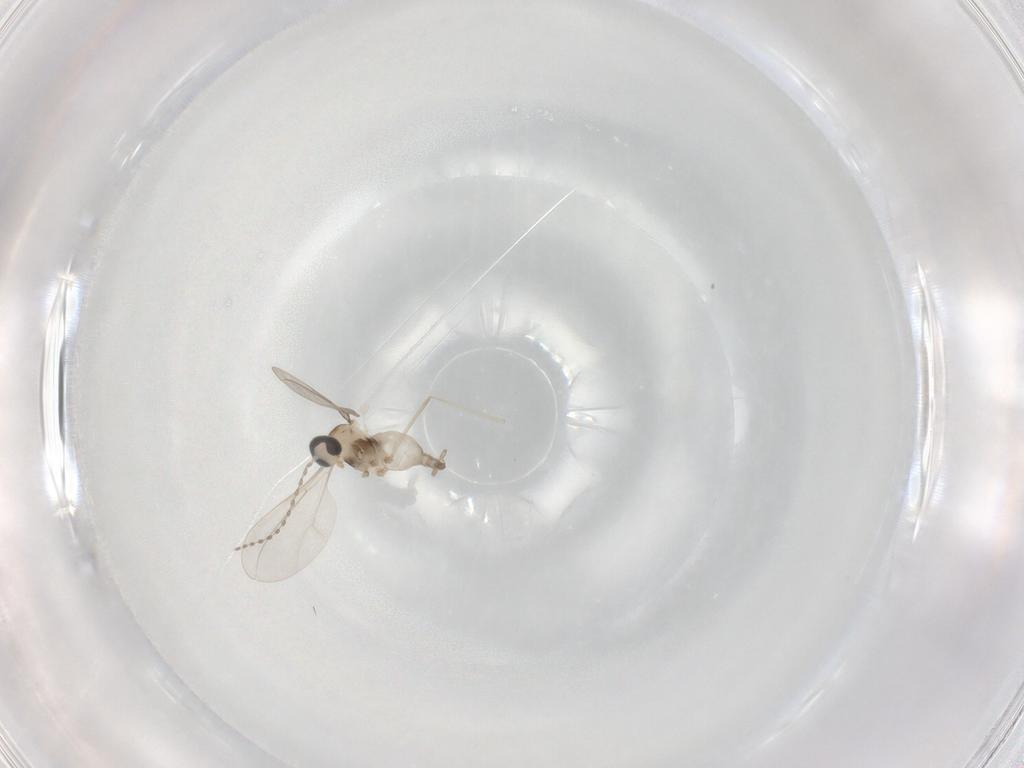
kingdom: Animalia
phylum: Arthropoda
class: Insecta
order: Diptera
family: Cecidomyiidae
